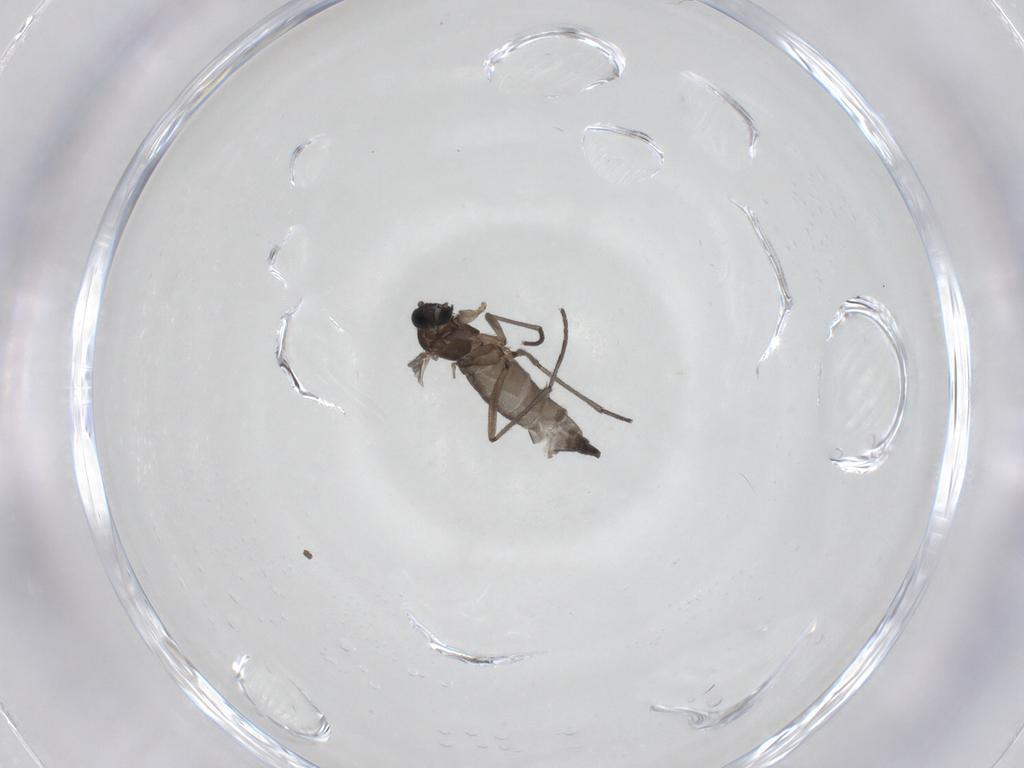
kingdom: Animalia
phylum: Arthropoda
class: Insecta
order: Diptera
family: Sciaridae
